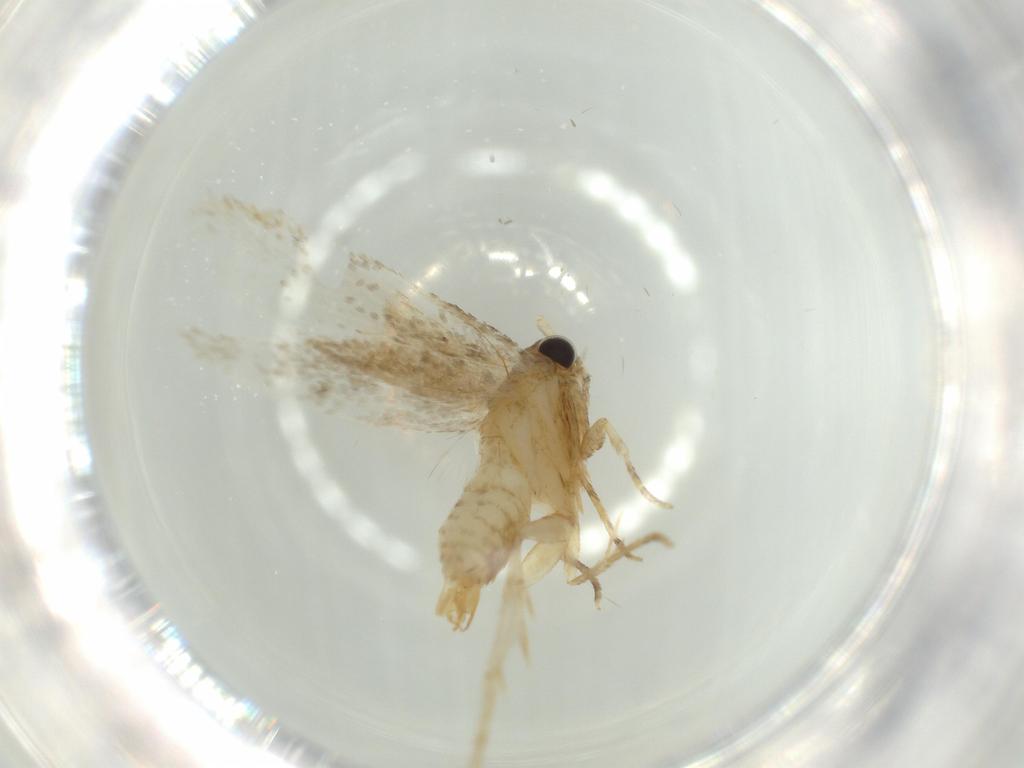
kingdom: Animalia
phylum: Arthropoda
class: Insecta
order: Lepidoptera
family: Tineidae
